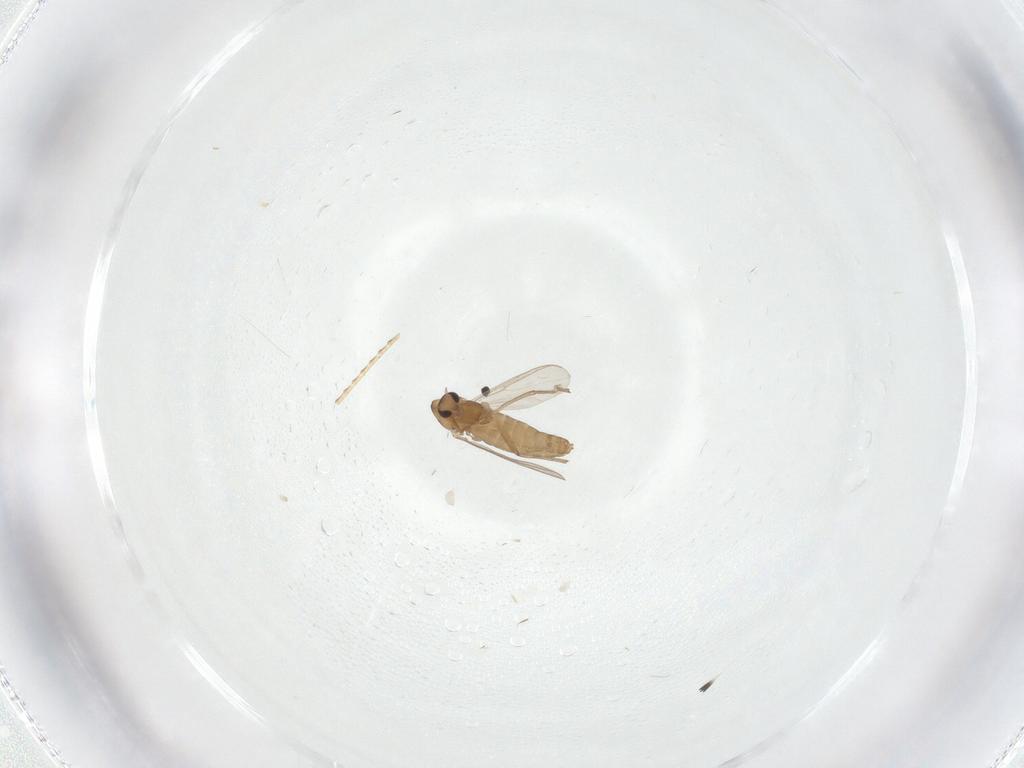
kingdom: Animalia
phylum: Arthropoda
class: Insecta
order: Diptera
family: Chironomidae
